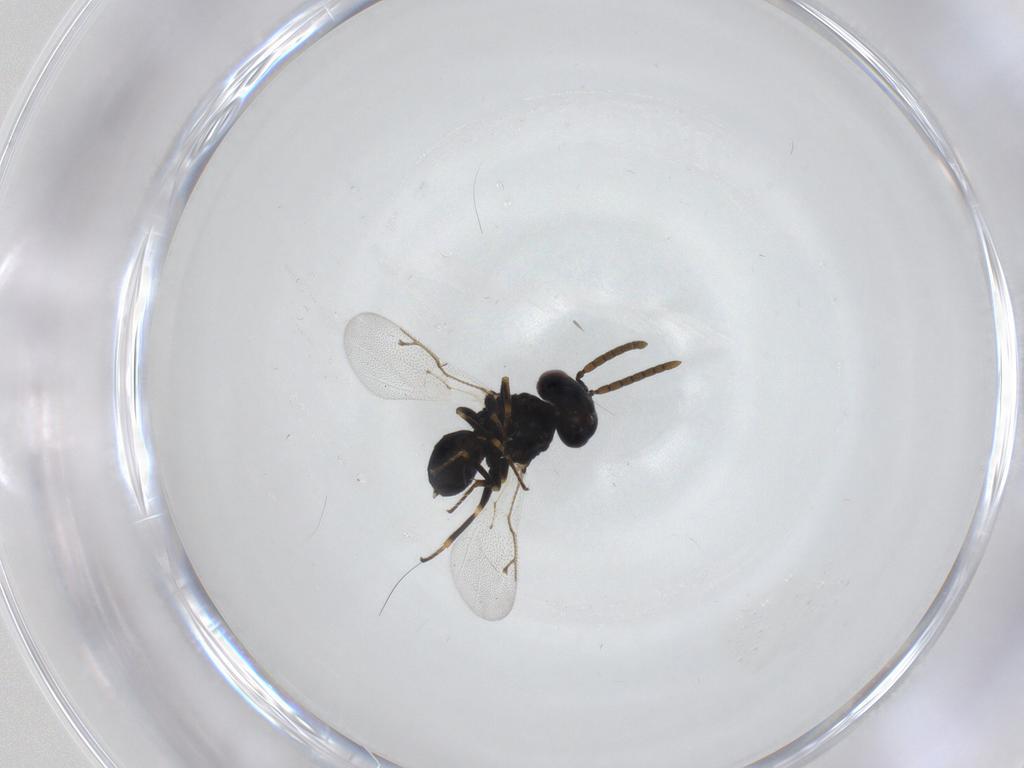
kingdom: Animalia
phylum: Arthropoda
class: Insecta
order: Hymenoptera
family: Pteromalidae
